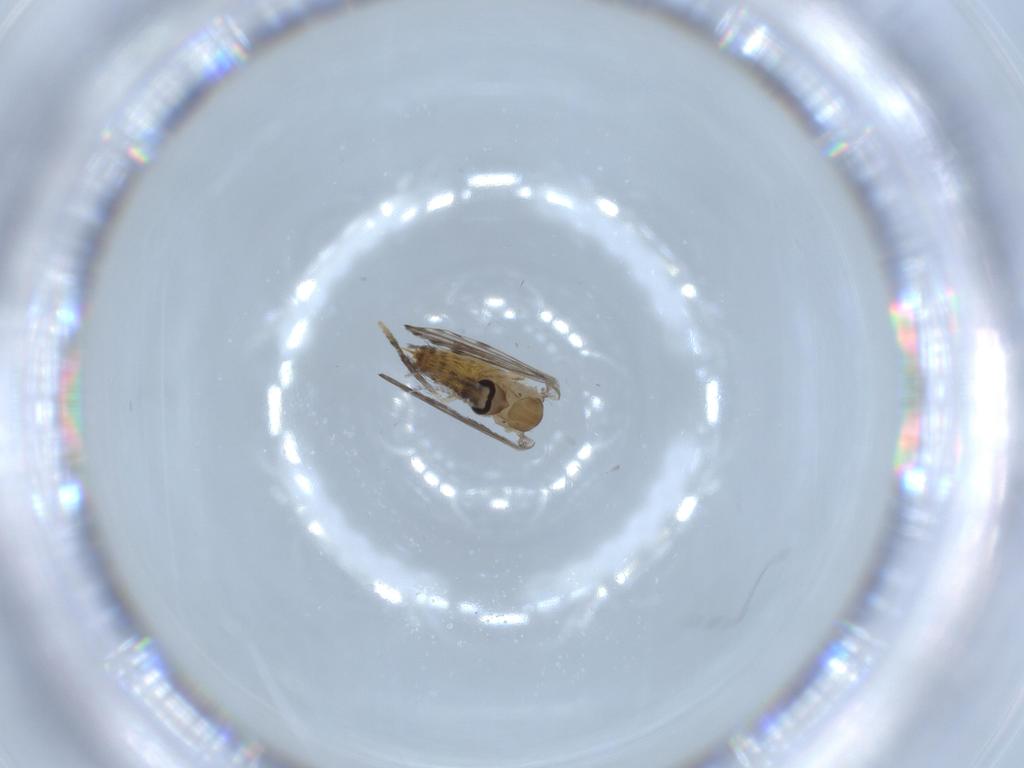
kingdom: Animalia
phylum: Arthropoda
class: Insecta
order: Diptera
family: Psychodidae
